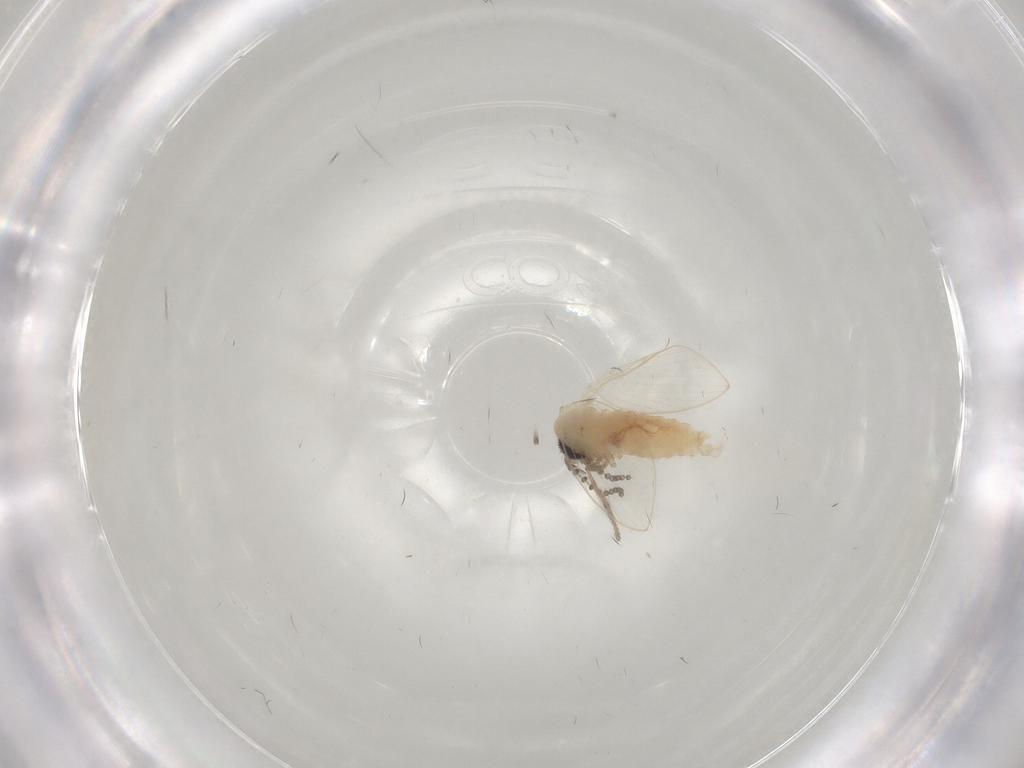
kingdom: Animalia
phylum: Arthropoda
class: Insecta
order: Diptera
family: Psychodidae
